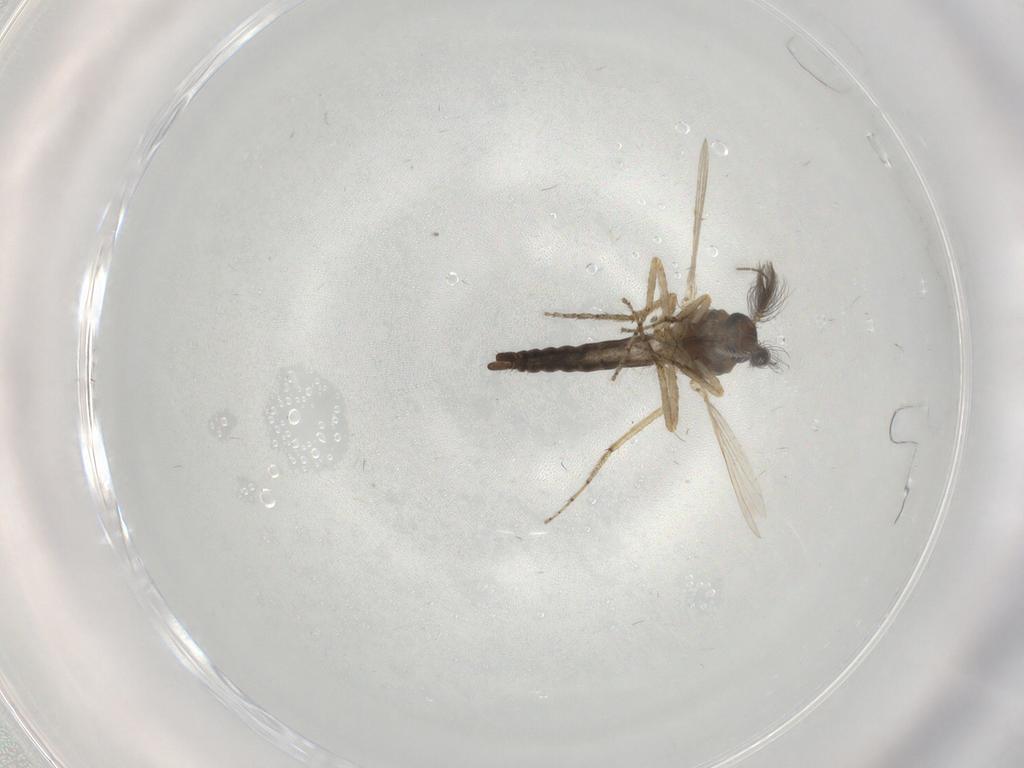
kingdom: Animalia
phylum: Arthropoda
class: Insecta
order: Diptera
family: Ceratopogonidae
